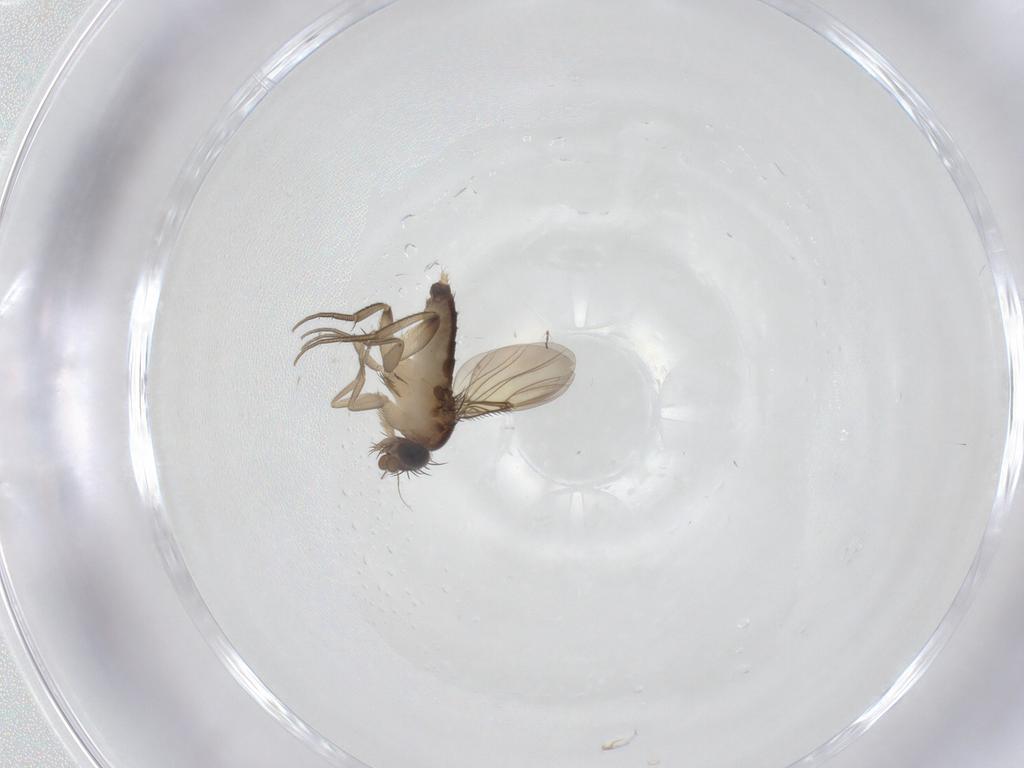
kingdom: Animalia
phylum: Arthropoda
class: Insecta
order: Diptera
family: Phoridae
